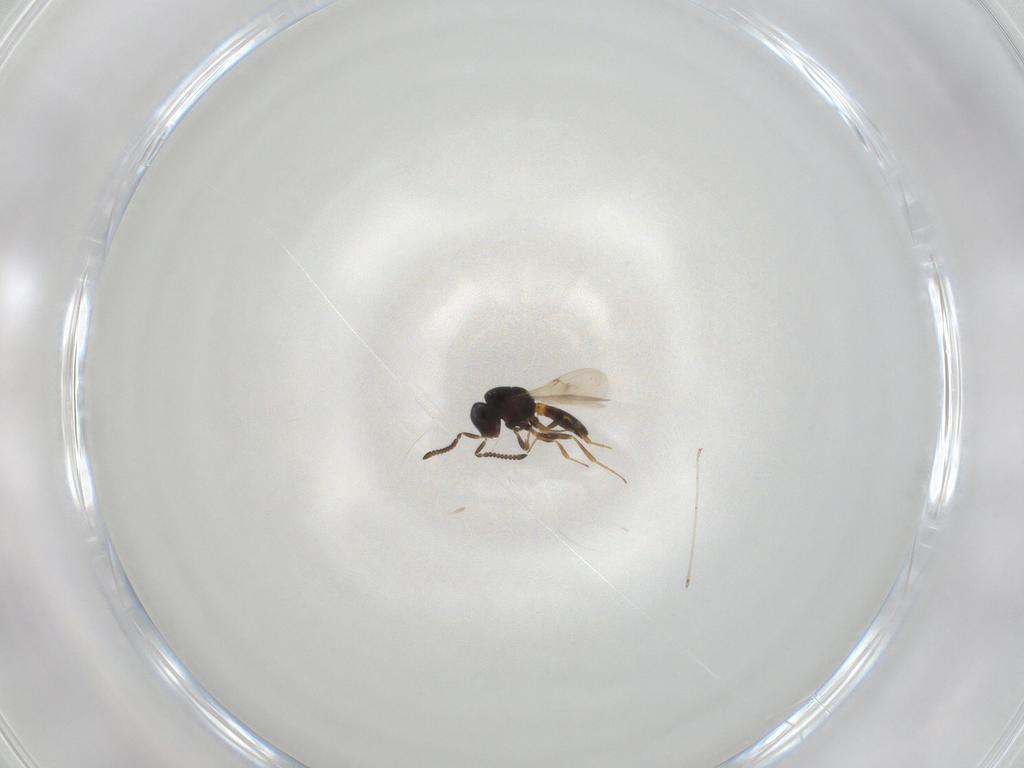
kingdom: Animalia
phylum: Arthropoda
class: Insecta
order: Hymenoptera
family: Scelionidae
